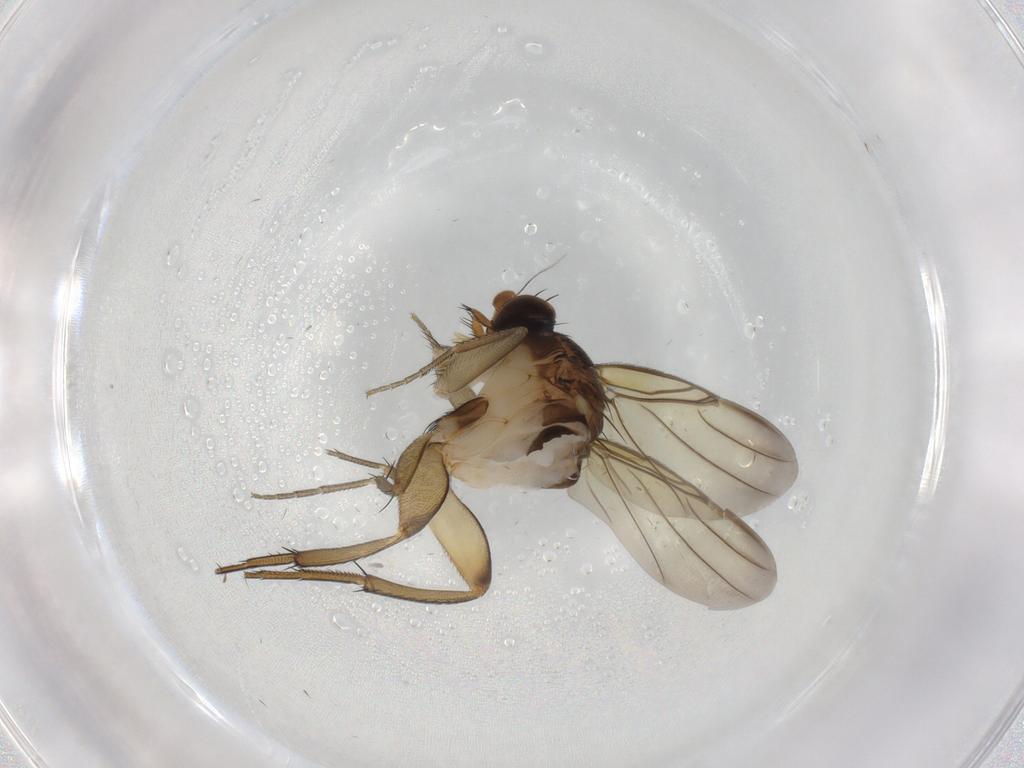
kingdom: Animalia
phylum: Arthropoda
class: Insecta
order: Diptera
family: Phoridae
